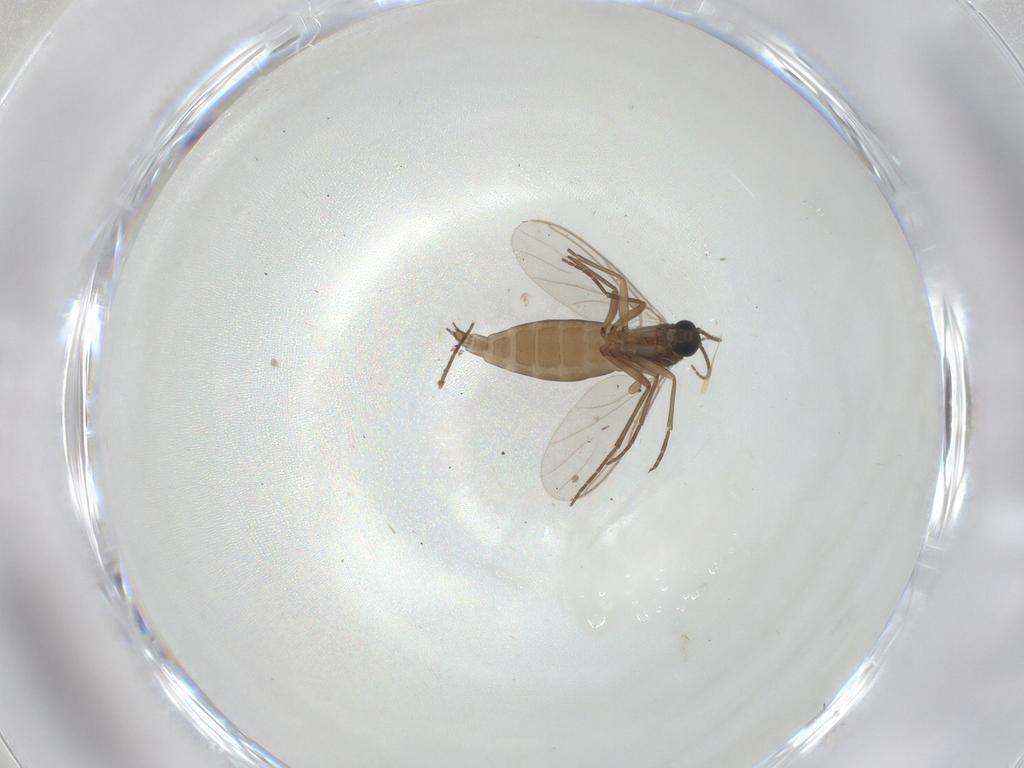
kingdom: Animalia
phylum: Arthropoda
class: Insecta
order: Diptera
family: Sciaridae
